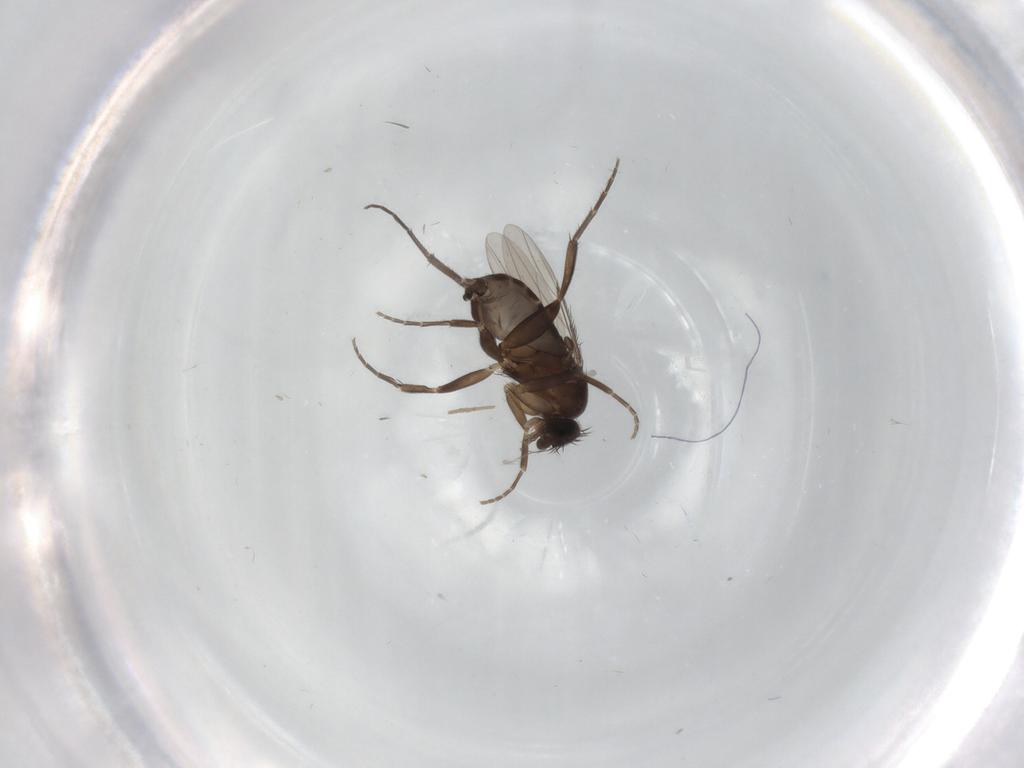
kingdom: Animalia
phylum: Arthropoda
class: Insecta
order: Diptera
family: Phoridae
